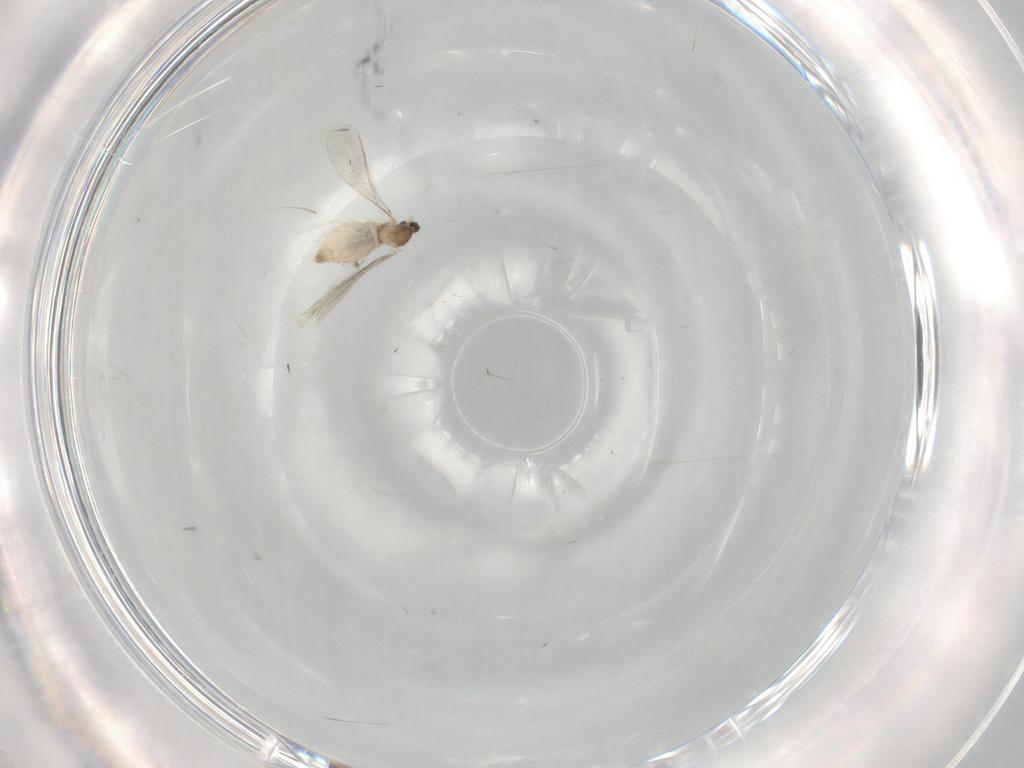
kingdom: Animalia
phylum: Arthropoda
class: Insecta
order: Diptera
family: Cecidomyiidae
